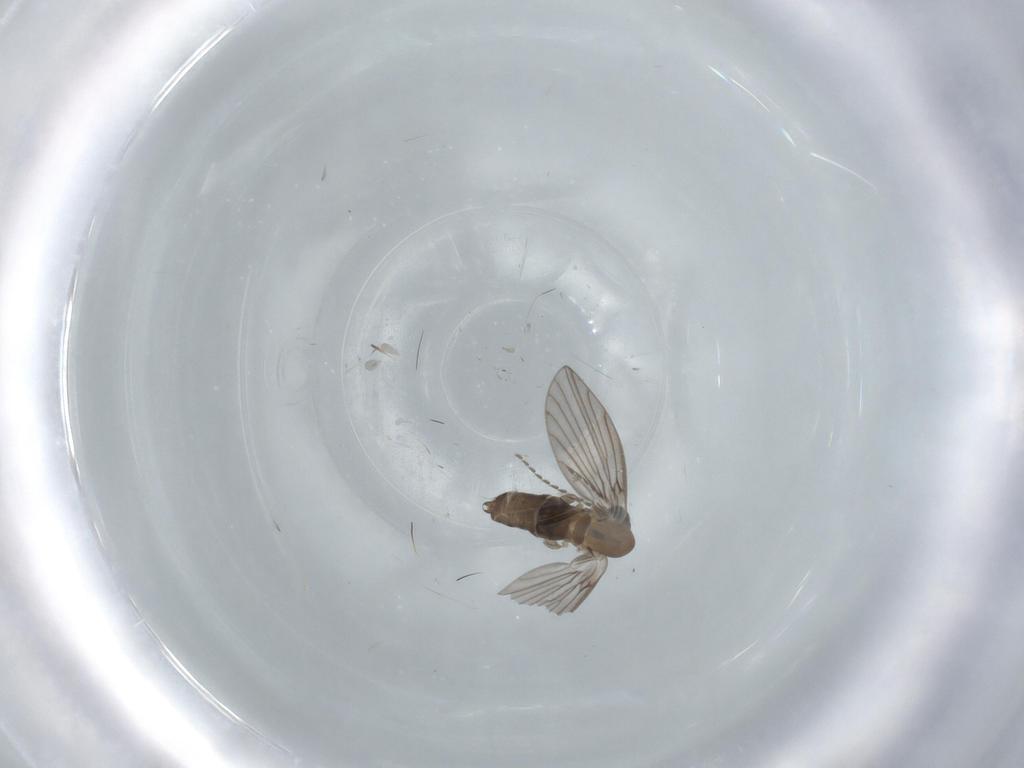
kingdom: Animalia
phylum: Arthropoda
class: Insecta
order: Diptera
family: Psychodidae
